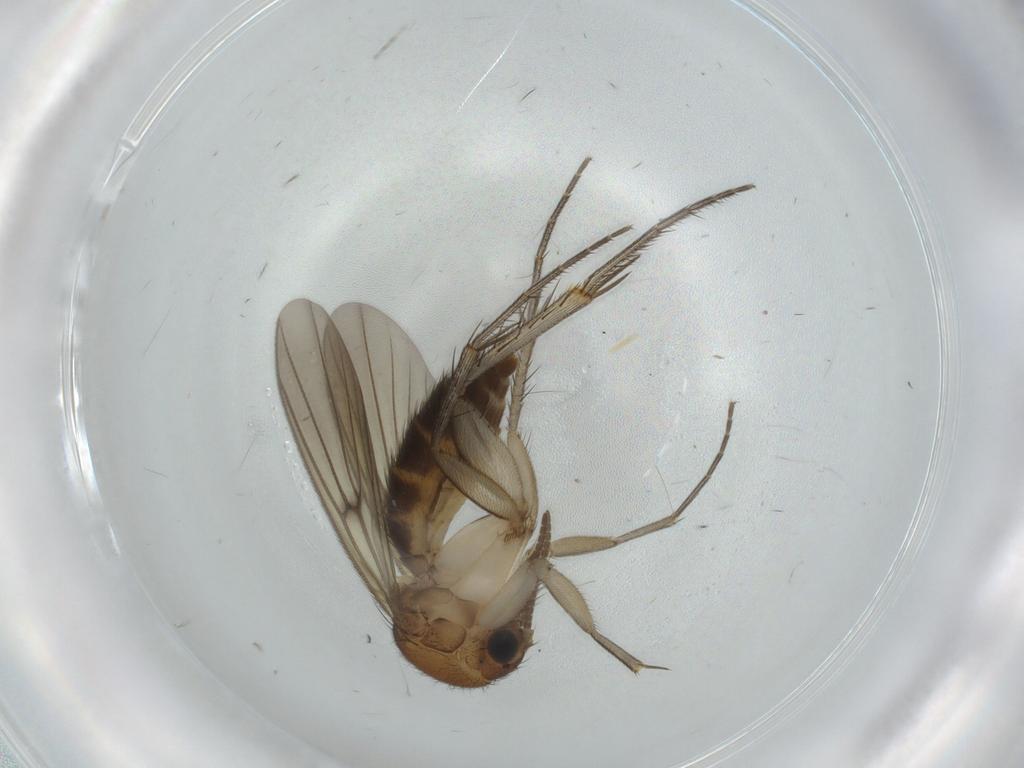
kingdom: Animalia
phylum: Arthropoda
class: Insecta
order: Diptera
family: Mycetophilidae
